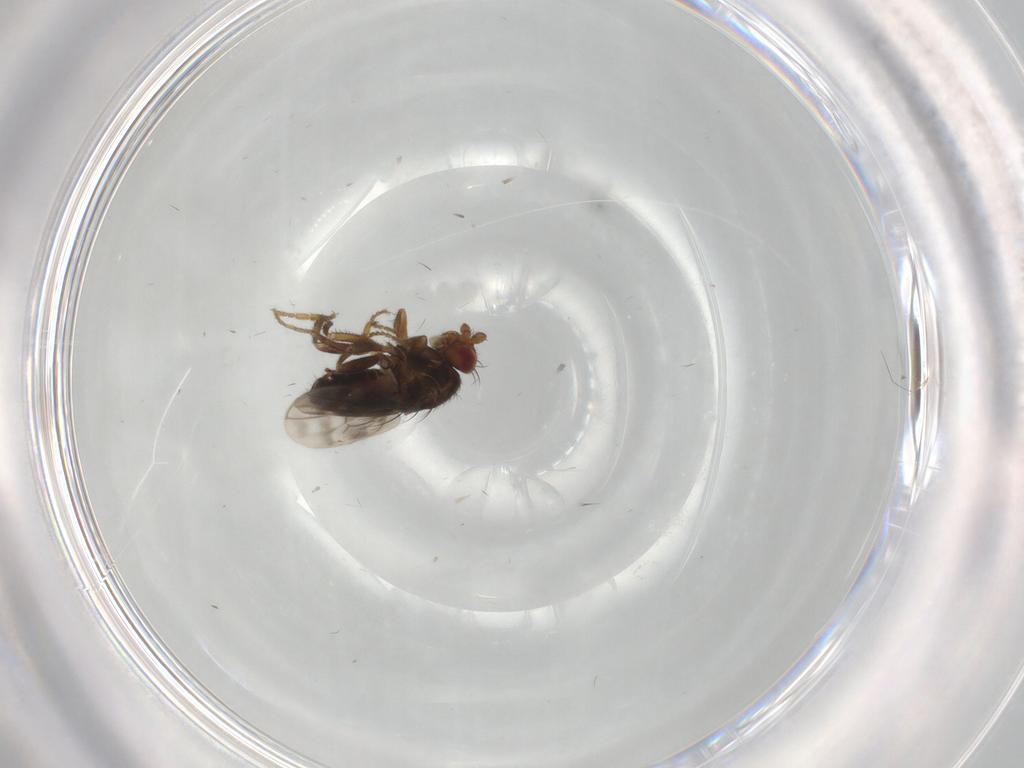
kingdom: Animalia
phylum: Arthropoda
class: Insecta
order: Diptera
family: Sphaeroceridae
